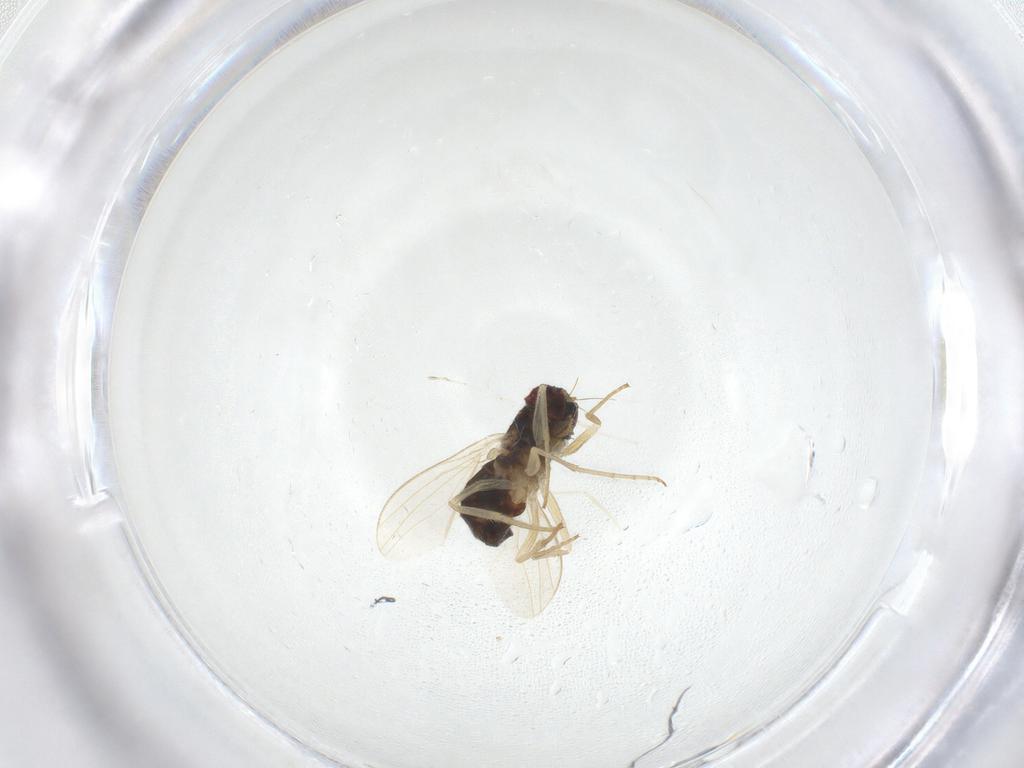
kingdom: Animalia
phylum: Arthropoda
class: Insecta
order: Diptera
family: Dolichopodidae
